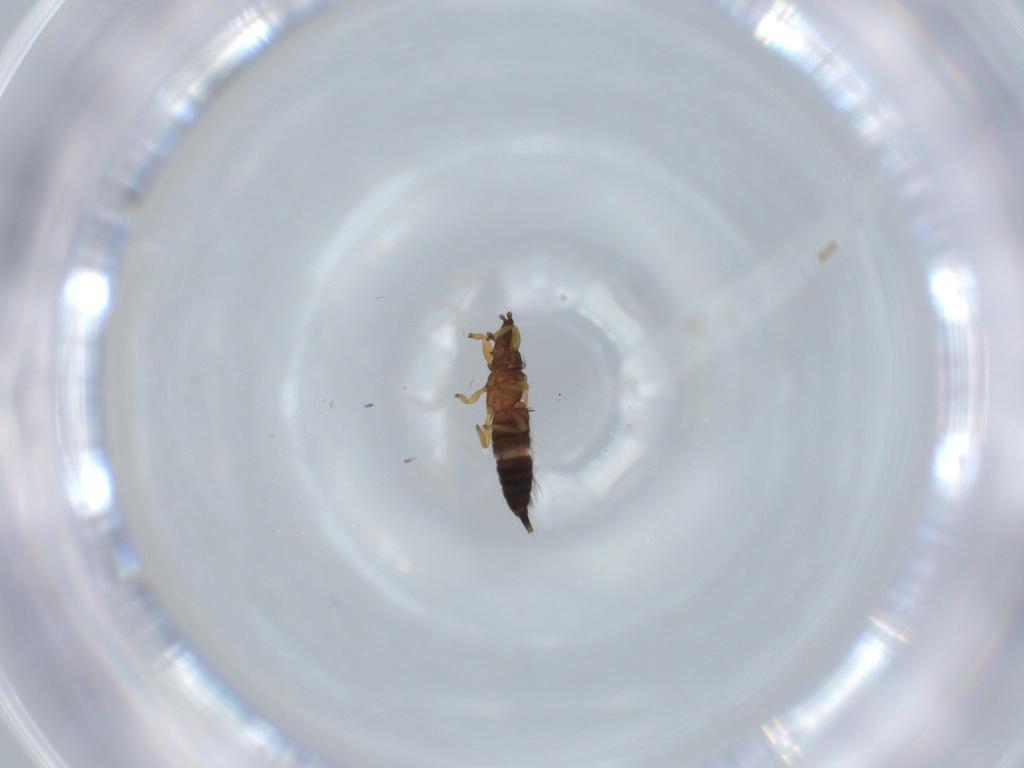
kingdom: Animalia
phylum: Arthropoda
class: Insecta
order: Thysanoptera
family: Phlaeothripidae
